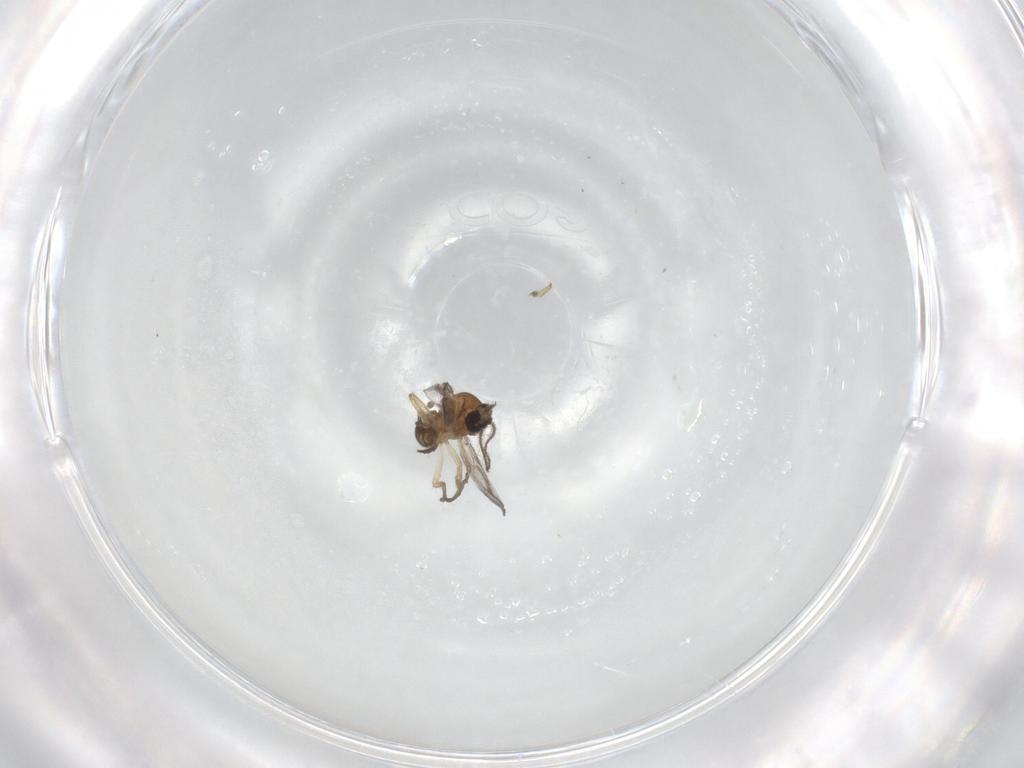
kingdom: Animalia
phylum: Arthropoda
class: Insecta
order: Diptera
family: Ceratopogonidae
